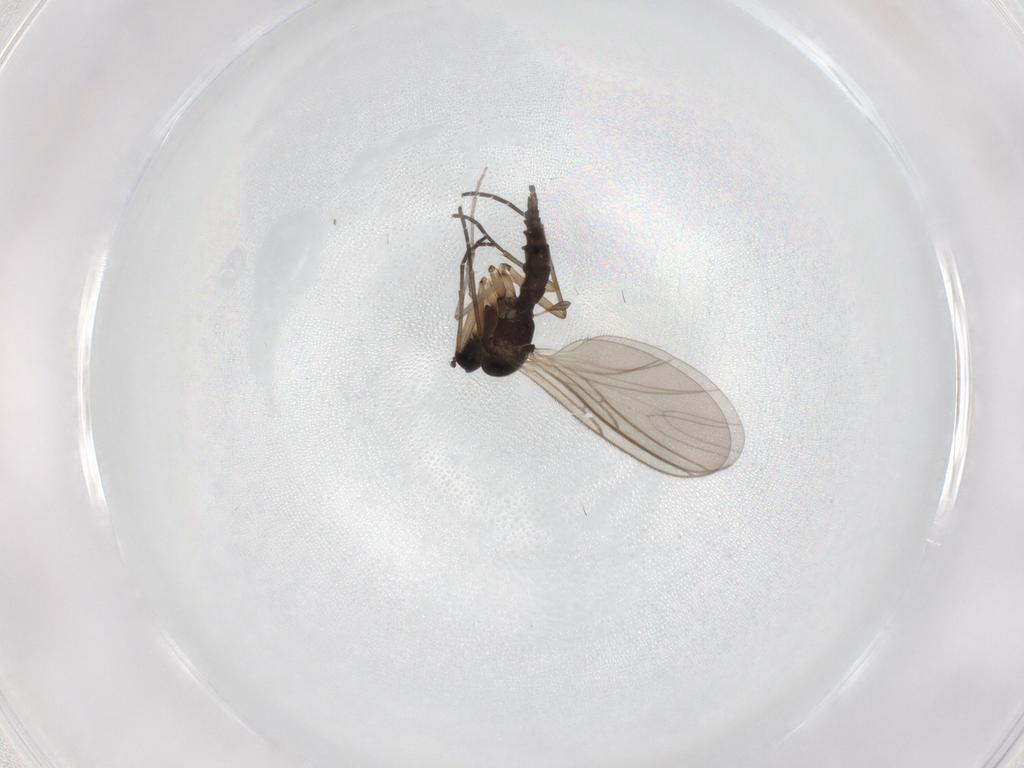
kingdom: Animalia
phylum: Arthropoda
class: Insecta
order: Diptera
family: Sciaridae
